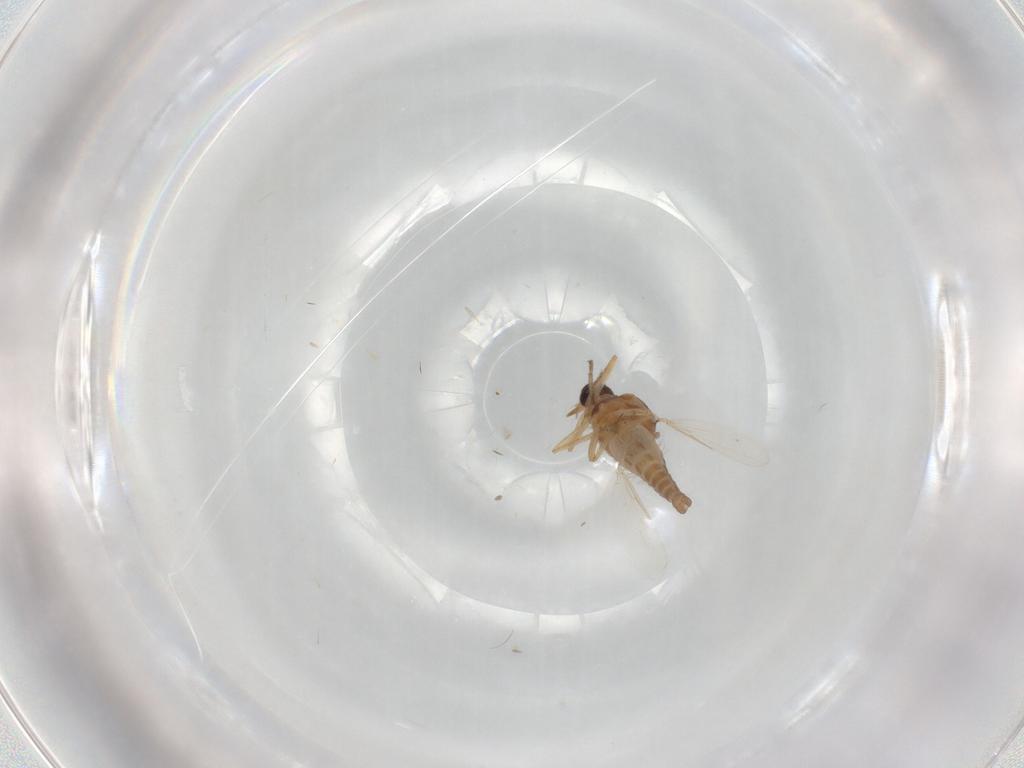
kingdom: Animalia
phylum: Arthropoda
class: Insecta
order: Diptera
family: Ceratopogonidae
